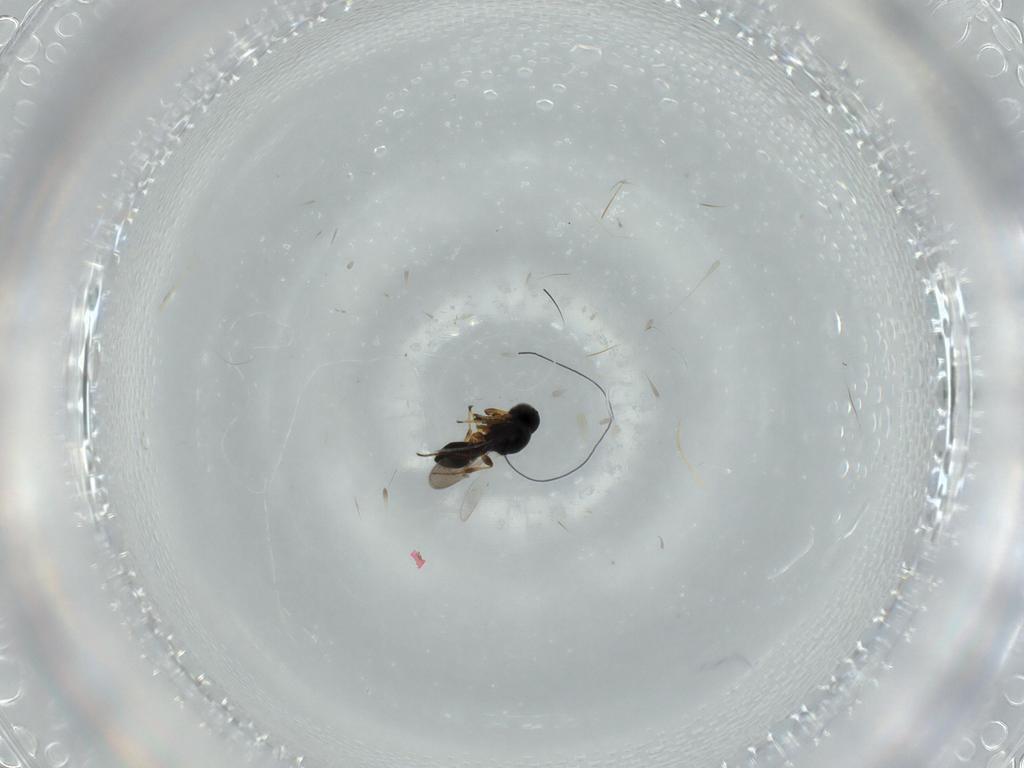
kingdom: Animalia
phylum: Arthropoda
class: Insecta
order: Hymenoptera
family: Platygastridae
